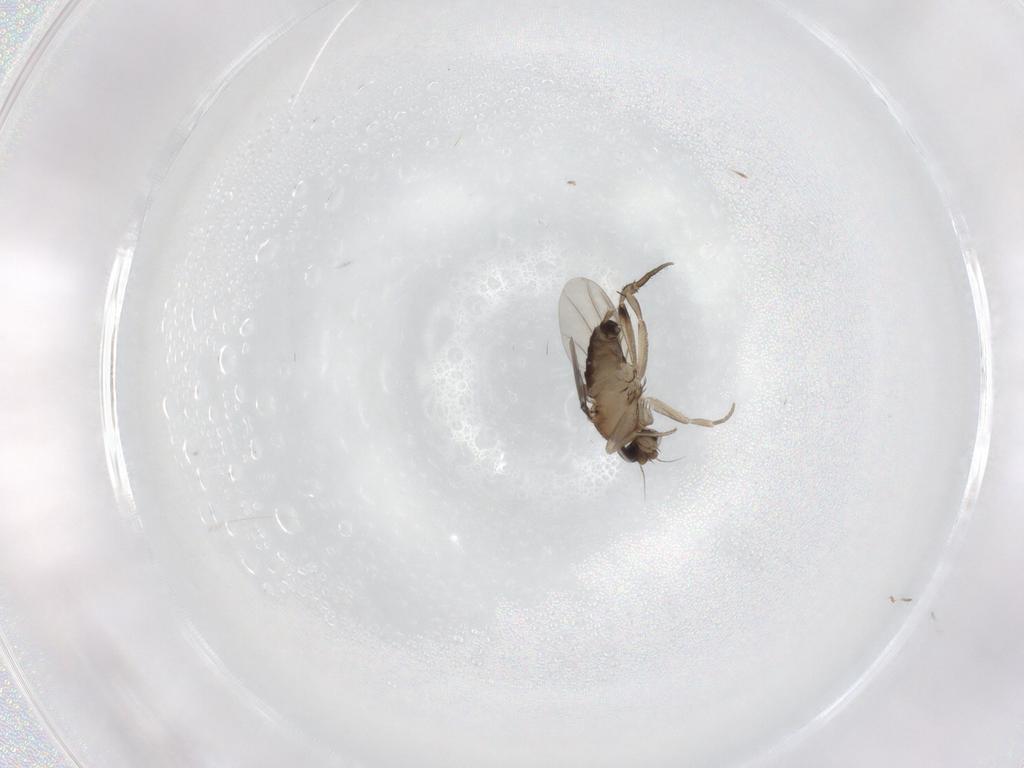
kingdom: Animalia
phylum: Arthropoda
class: Insecta
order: Diptera
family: Phoridae
